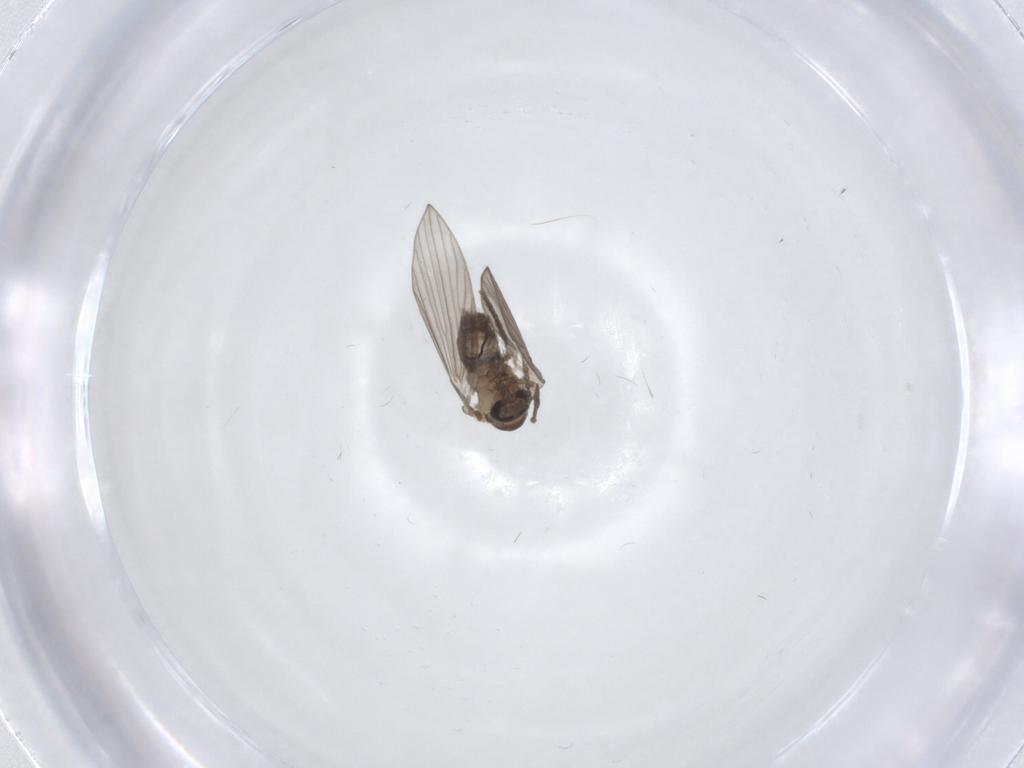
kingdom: Animalia
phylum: Arthropoda
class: Insecta
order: Diptera
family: Psychodidae
